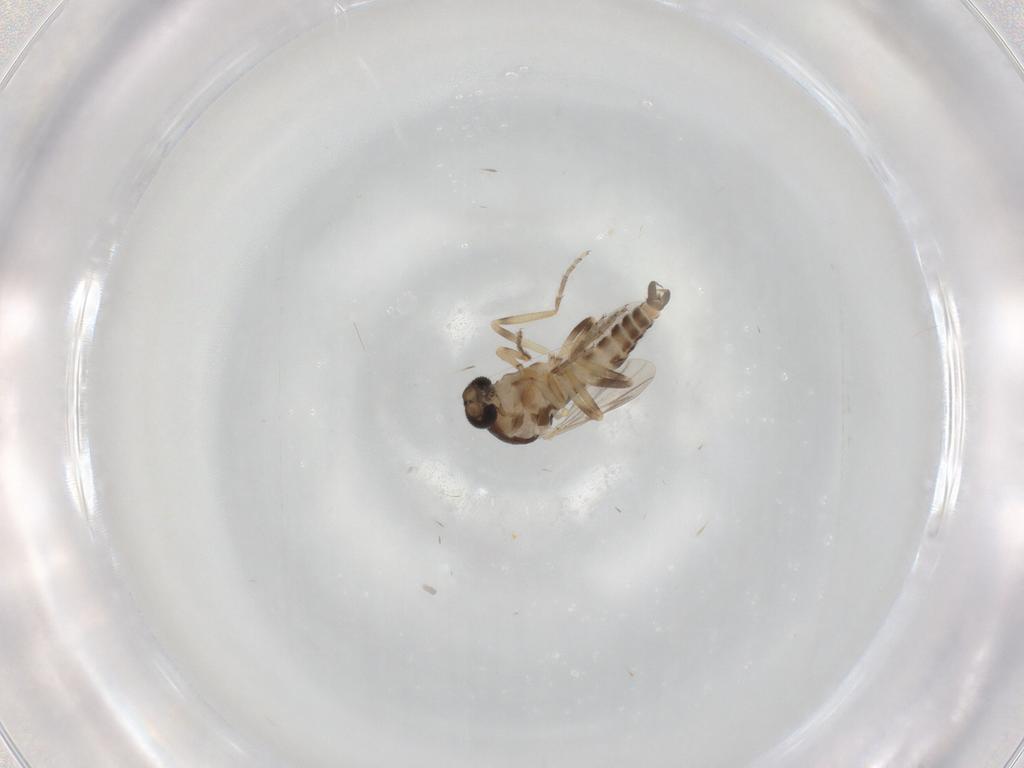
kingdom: Animalia
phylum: Arthropoda
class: Insecta
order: Diptera
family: Ceratopogonidae
